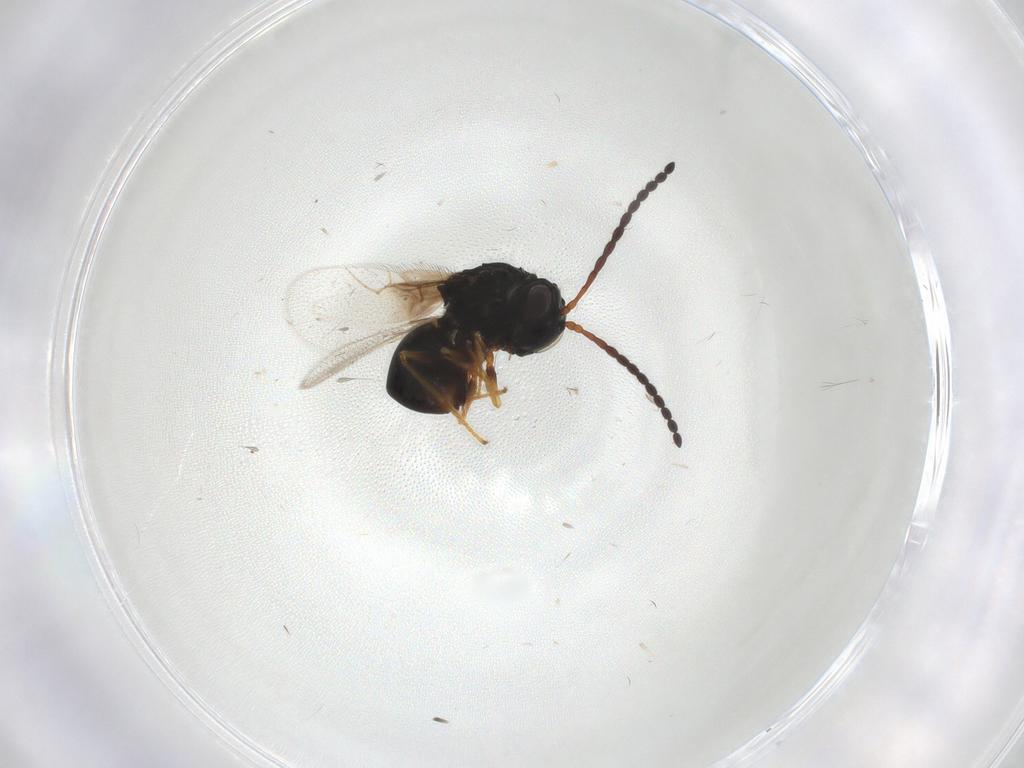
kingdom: Animalia
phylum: Arthropoda
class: Insecta
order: Hymenoptera
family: Figitidae
